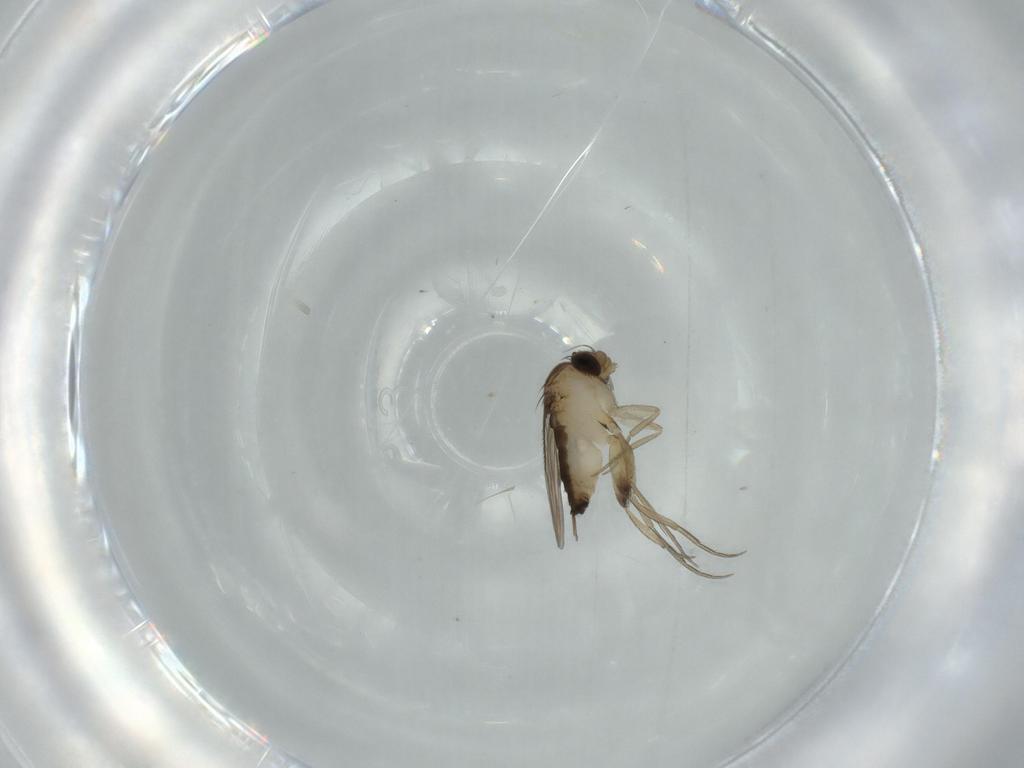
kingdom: Animalia
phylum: Arthropoda
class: Insecta
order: Diptera
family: Phoridae
